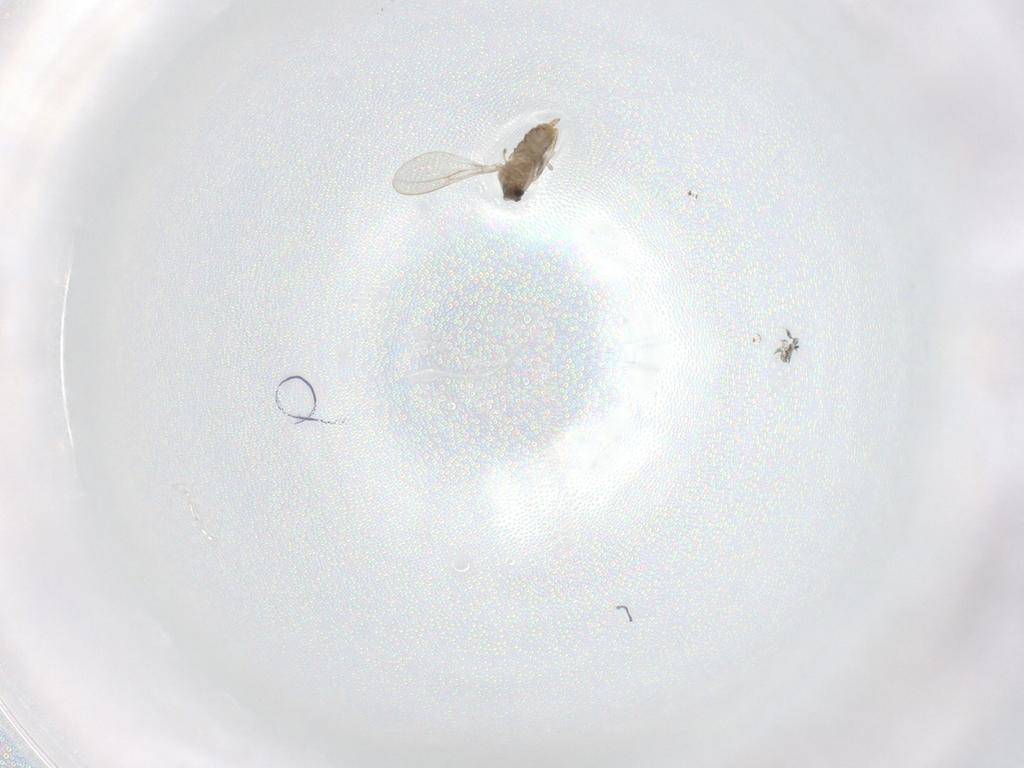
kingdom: Animalia
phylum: Arthropoda
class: Insecta
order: Diptera
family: Cecidomyiidae
